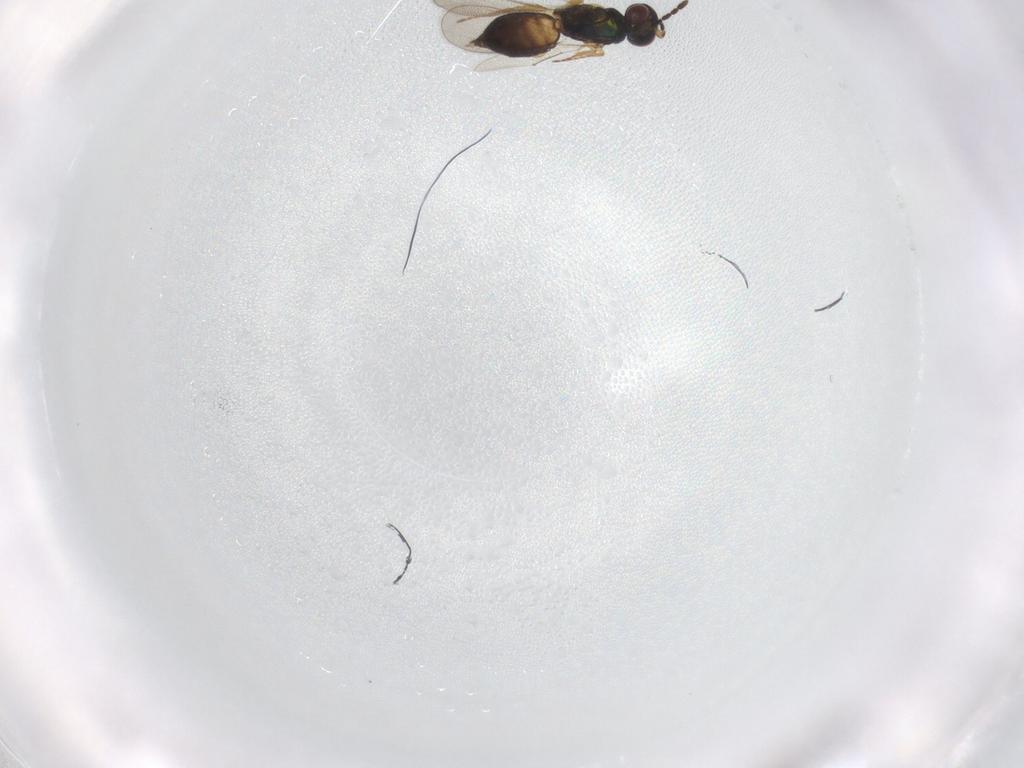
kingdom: Animalia
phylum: Arthropoda
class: Insecta
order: Hymenoptera
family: Eulophidae
